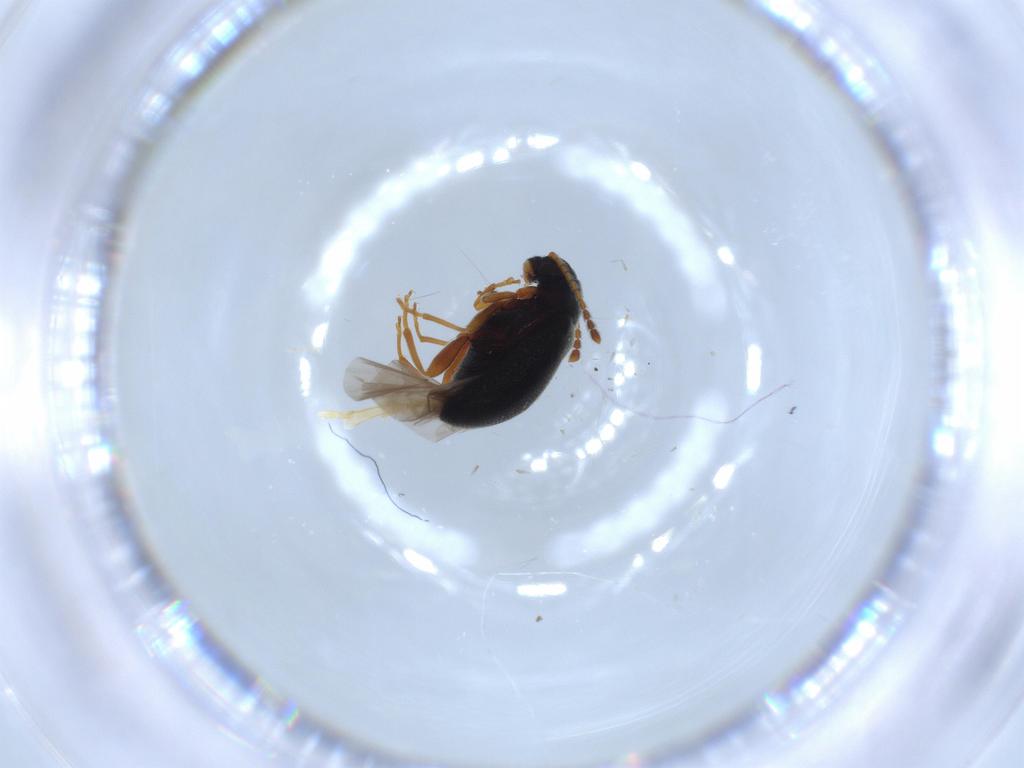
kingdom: Animalia
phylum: Arthropoda
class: Insecta
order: Coleoptera
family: Aderidae
